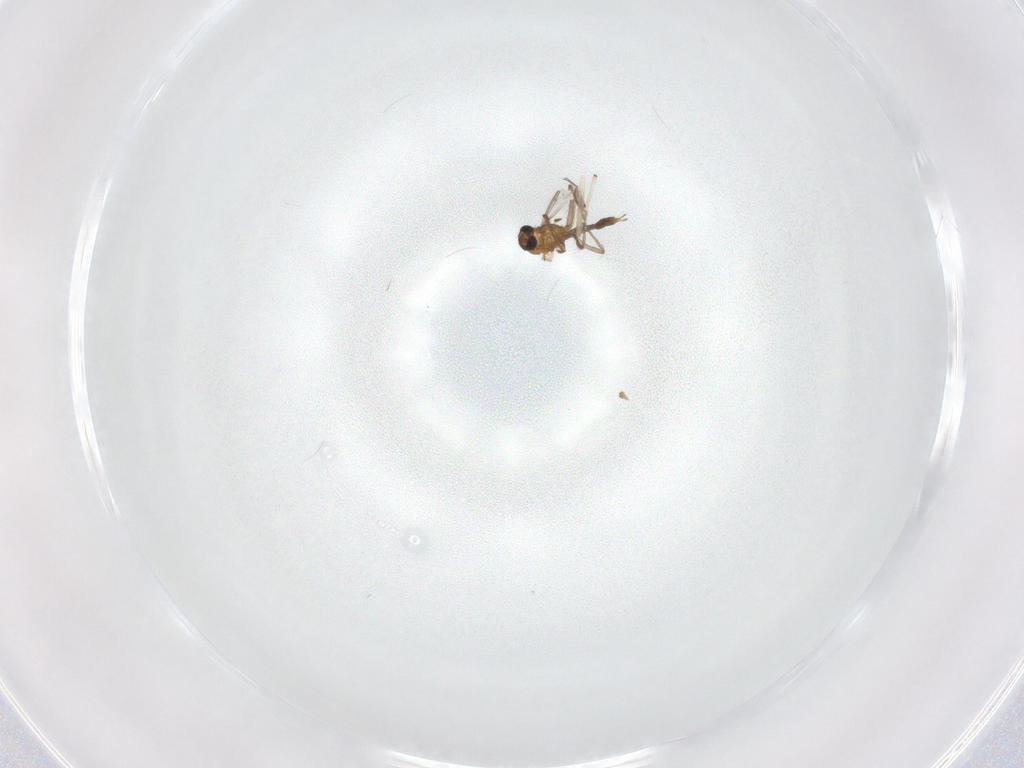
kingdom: Animalia
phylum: Arthropoda
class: Insecta
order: Diptera
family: Chironomidae
